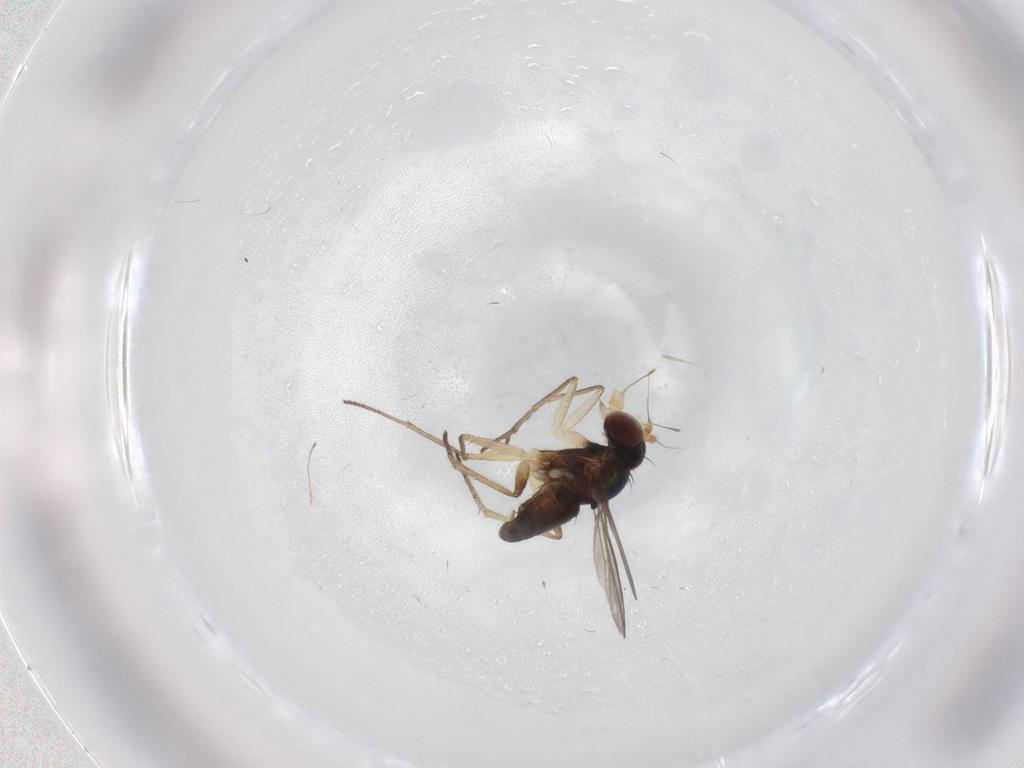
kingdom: Animalia
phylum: Arthropoda
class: Insecta
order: Diptera
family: Dolichopodidae
